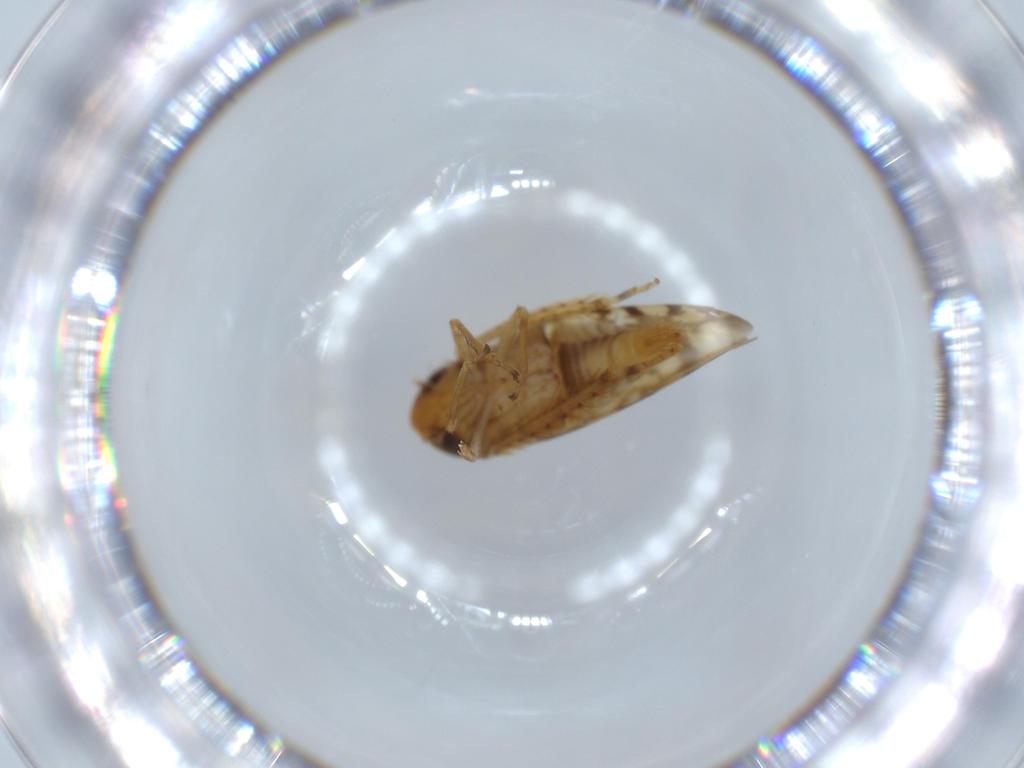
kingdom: Animalia
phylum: Arthropoda
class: Insecta
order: Hemiptera
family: Cicadellidae
